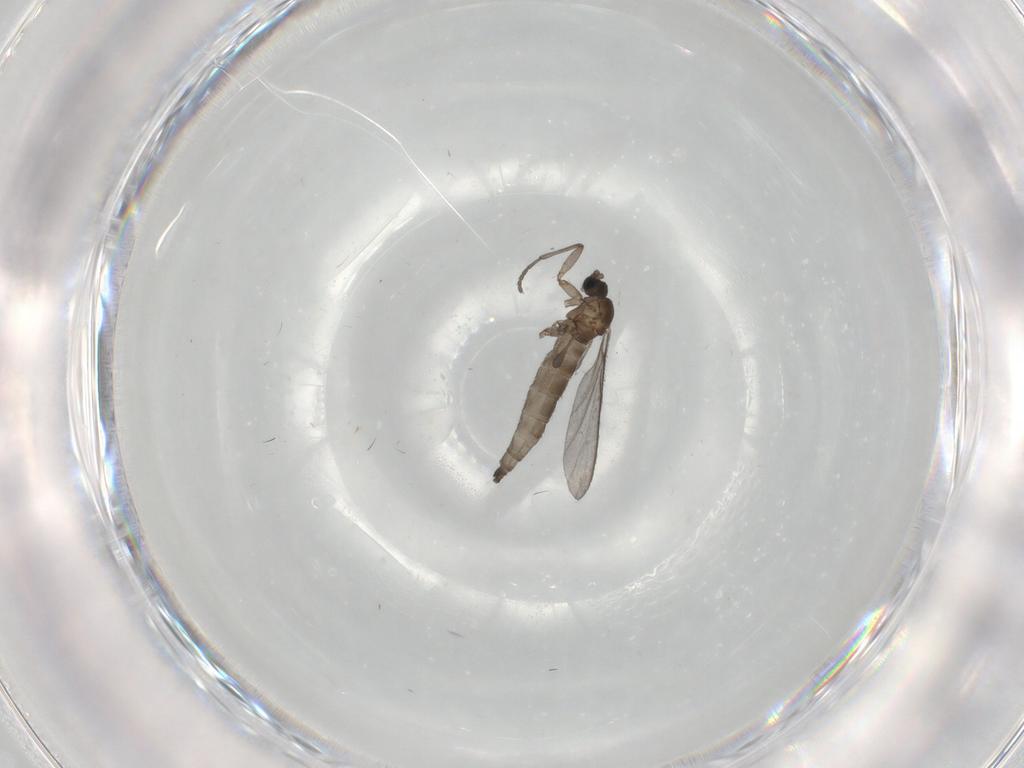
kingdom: Animalia
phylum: Arthropoda
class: Insecta
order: Diptera
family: Sciaridae
